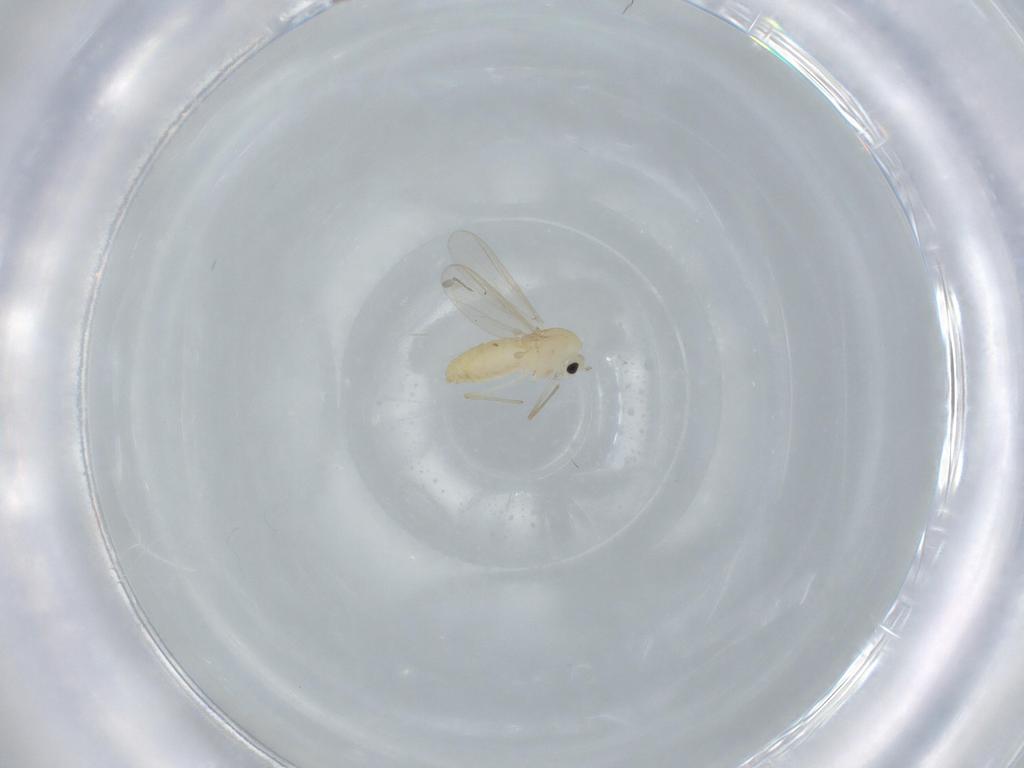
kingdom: Animalia
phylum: Arthropoda
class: Insecta
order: Diptera
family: Chironomidae
